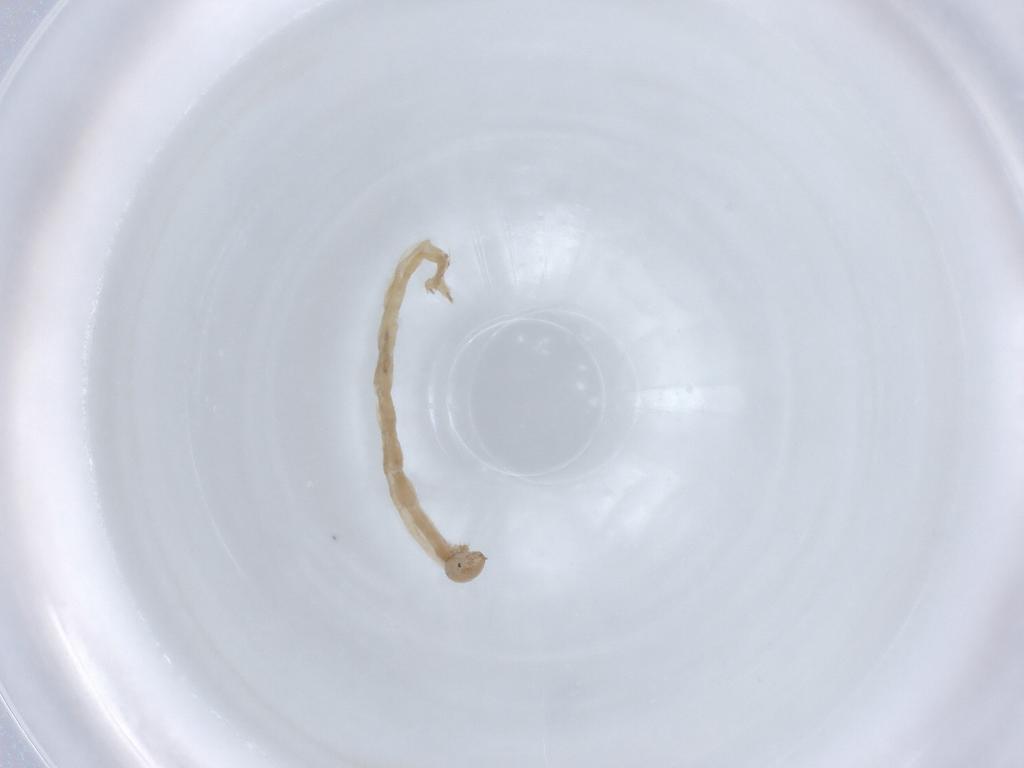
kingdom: Animalia
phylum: Arthropoda
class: Insecta
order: Diptera
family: Chironomidae
